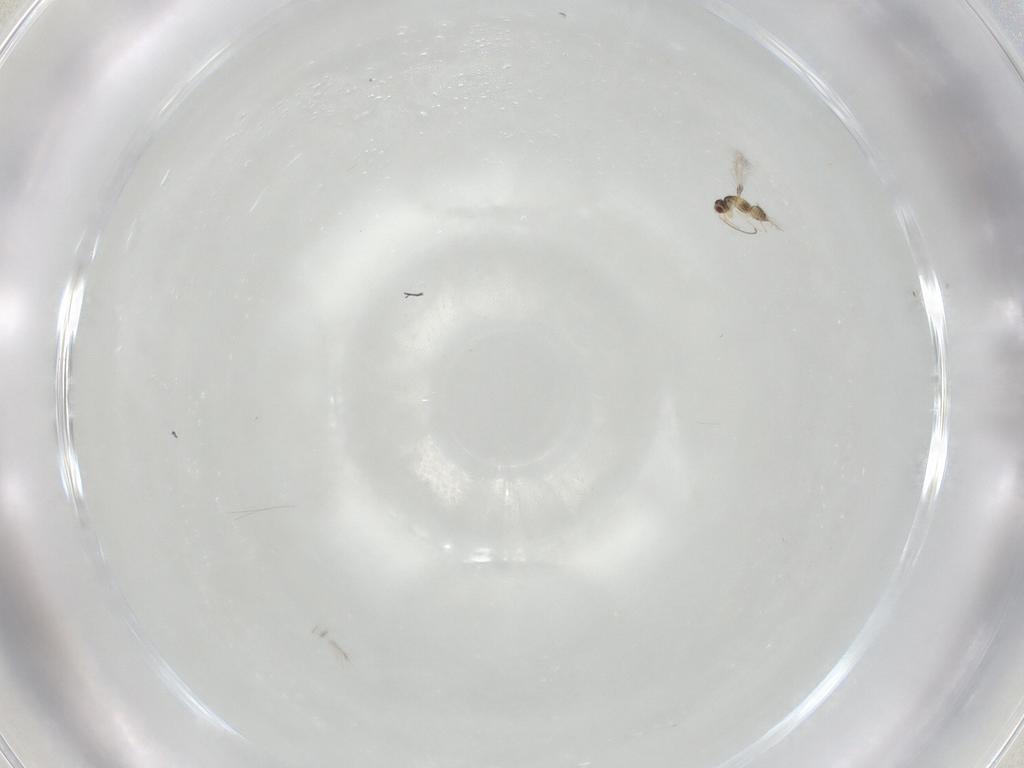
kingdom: Animalia
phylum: Arthropoda
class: Insecta
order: Hymenoptera
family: Mymaridae
